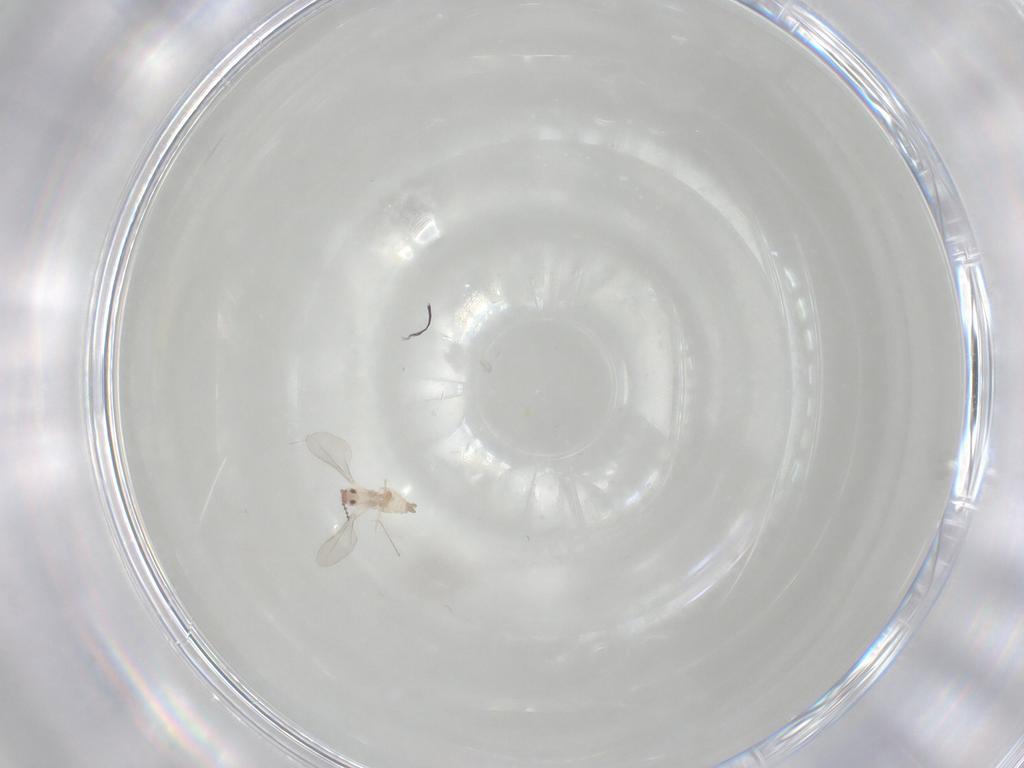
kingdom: Animalia
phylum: Arthropoda
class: Insecta
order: Diptera
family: Cecidomyiidae
